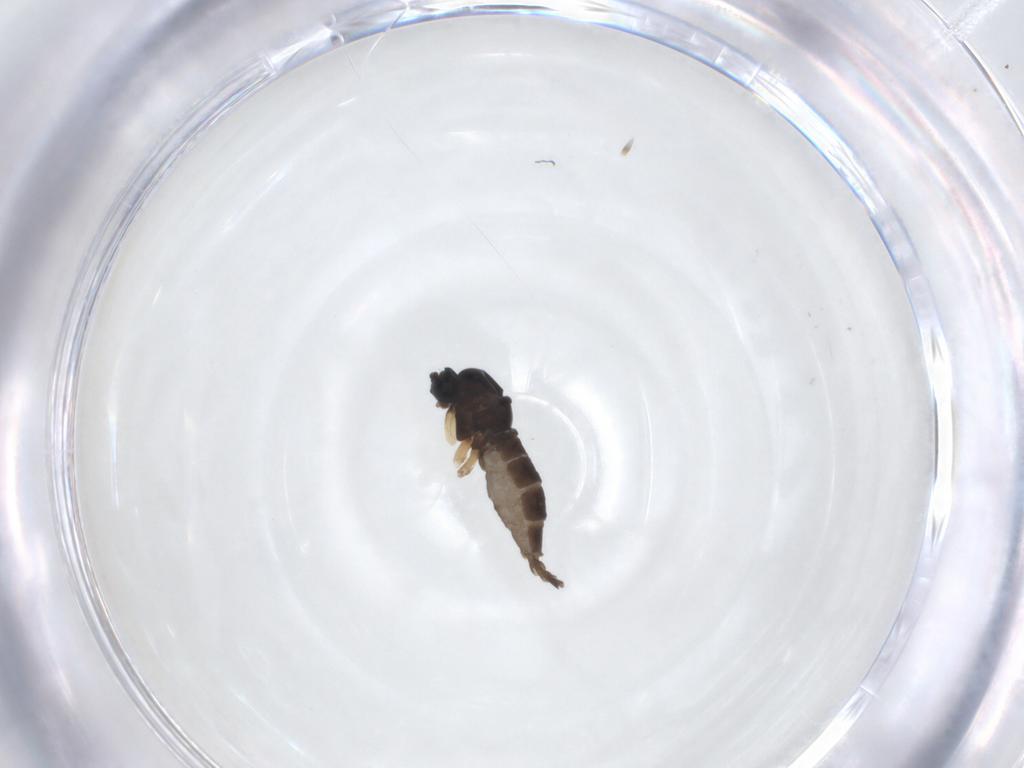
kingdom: Animalia
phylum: Arthropoda
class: Insecta
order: Diptera
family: Sciaridae
